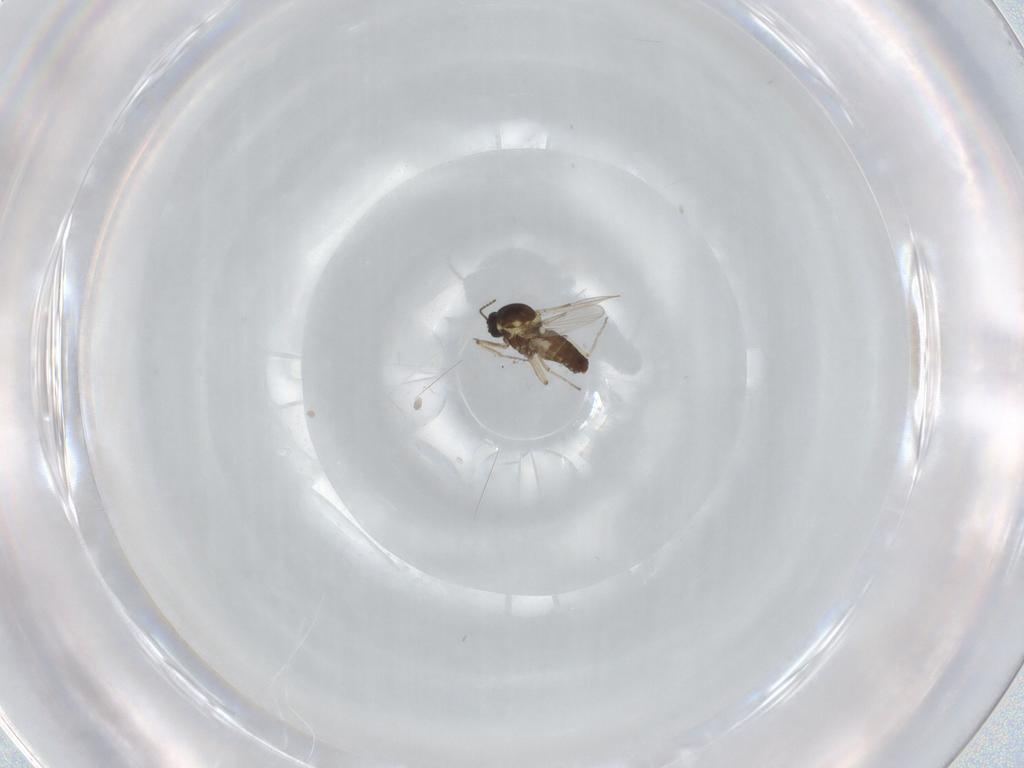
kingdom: Animalia
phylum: Arthropoda
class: Insecta
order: Diptera
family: Ceratopogonidae
